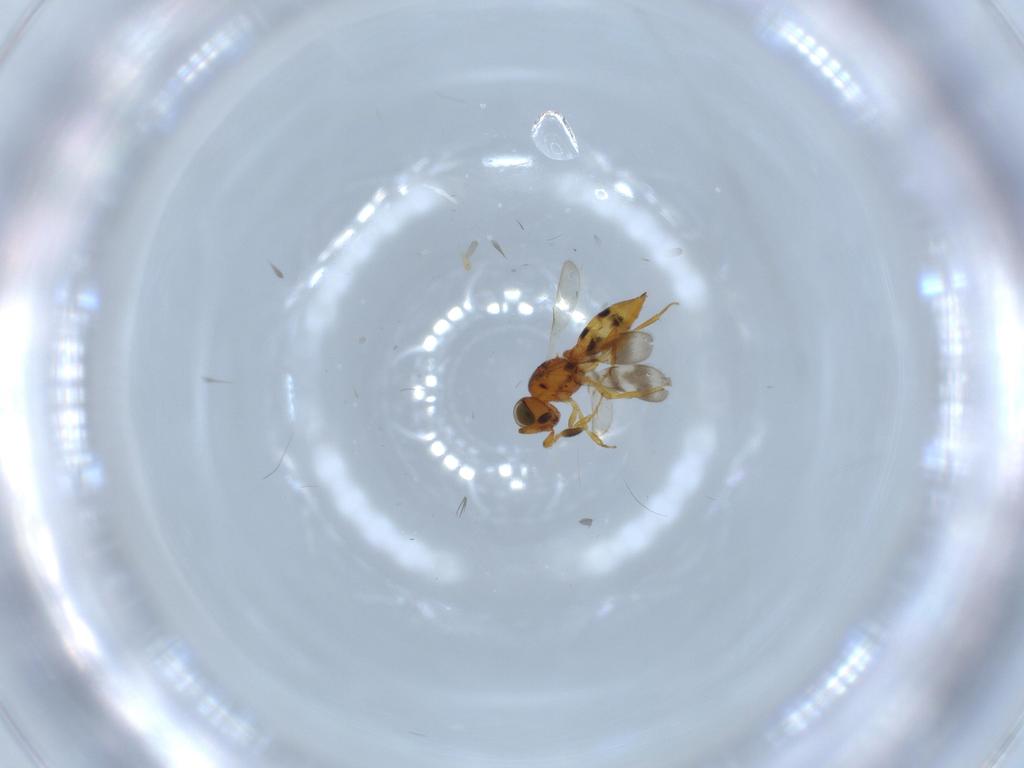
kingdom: Animalia
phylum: Arthropoda
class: Insecta
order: Hymenoptera
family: Scelionidae
